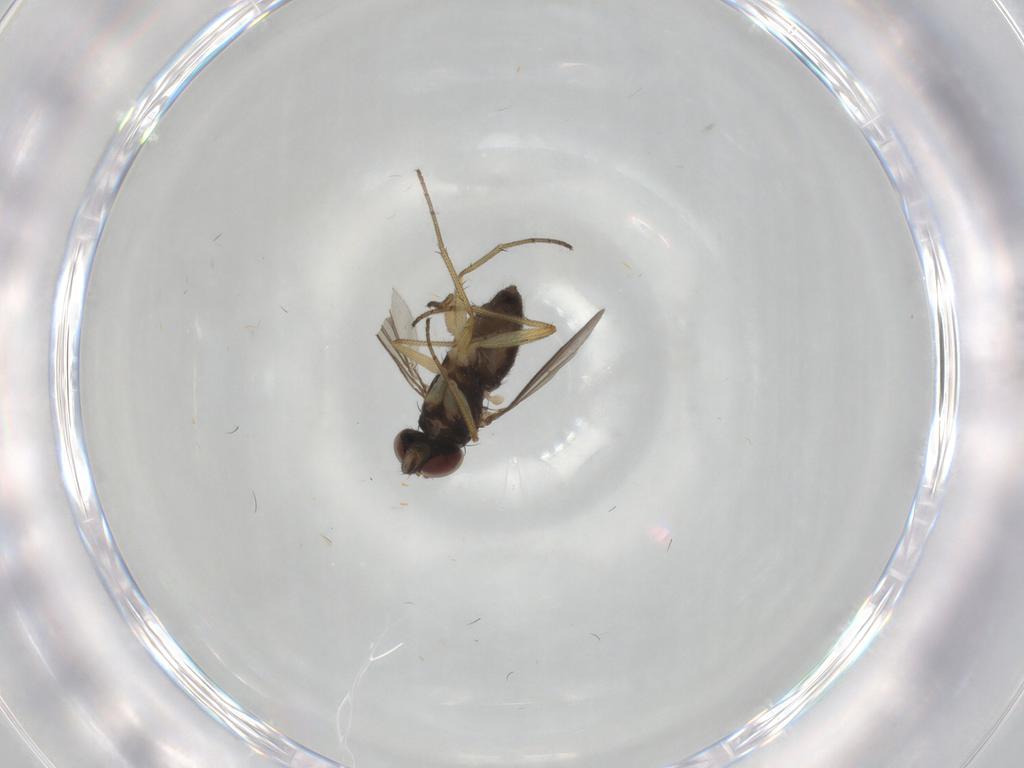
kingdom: Animalia
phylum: Arthropoda
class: Insecta
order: Diptera
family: Dolichopodidae
